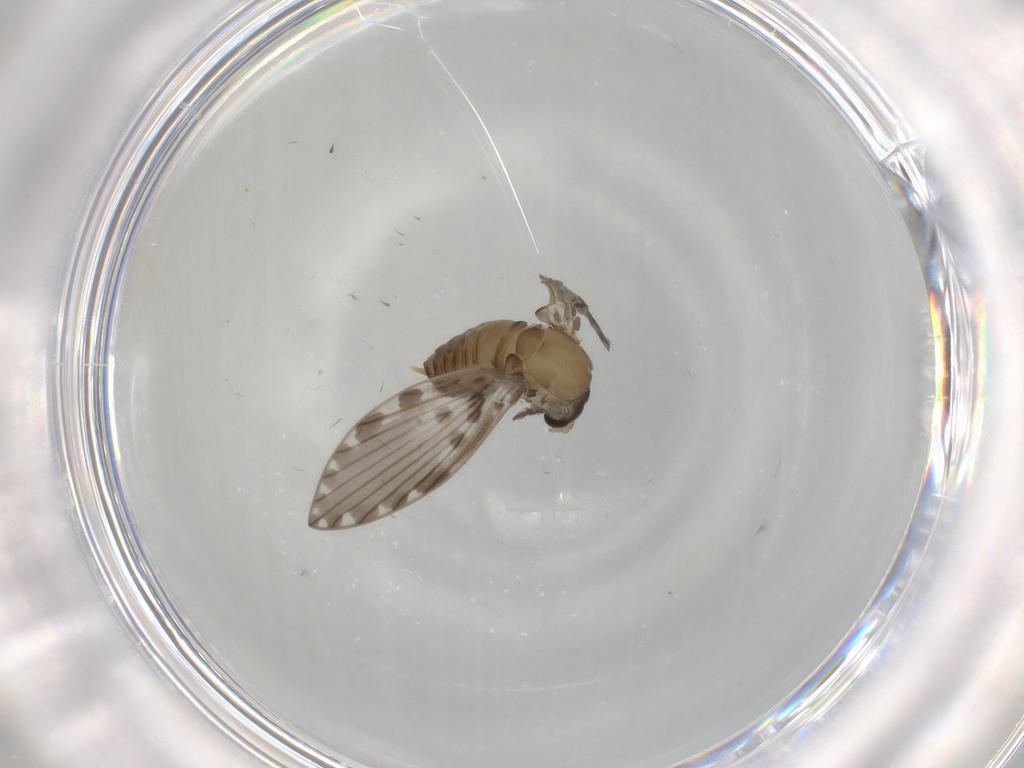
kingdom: Animalia
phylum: Arthropoda
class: Insecta
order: Diptera
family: Psychodidae
